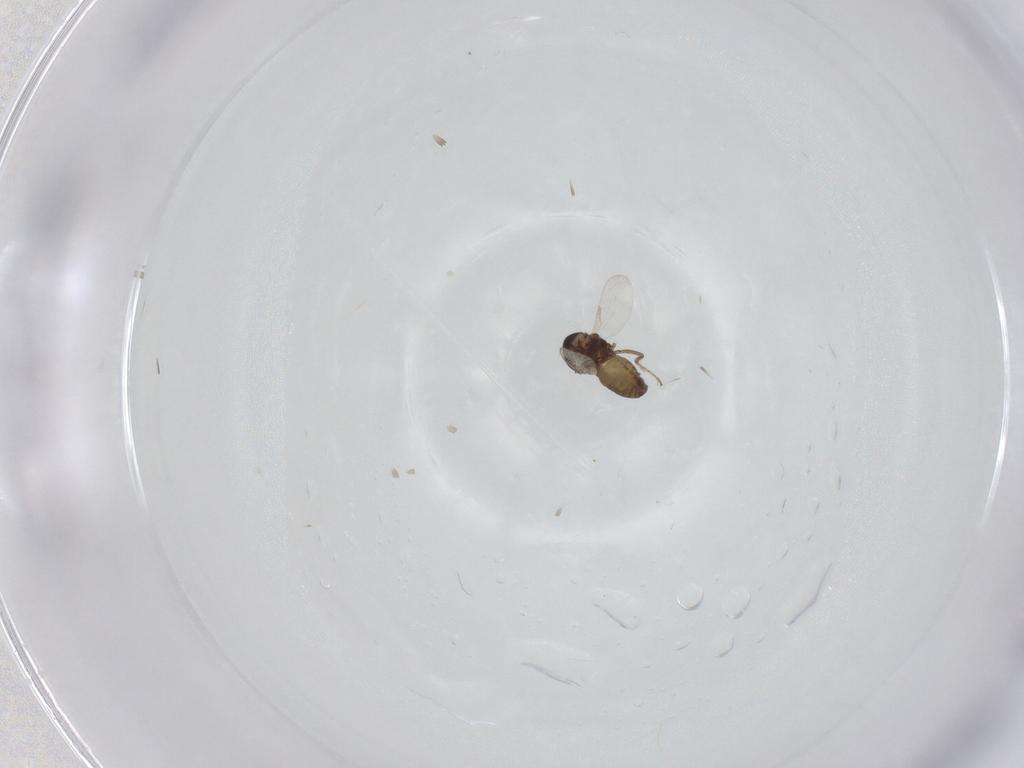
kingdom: Animalia
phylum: Arthropoda
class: Insecta
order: Diptera
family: Ceratopogonidae
